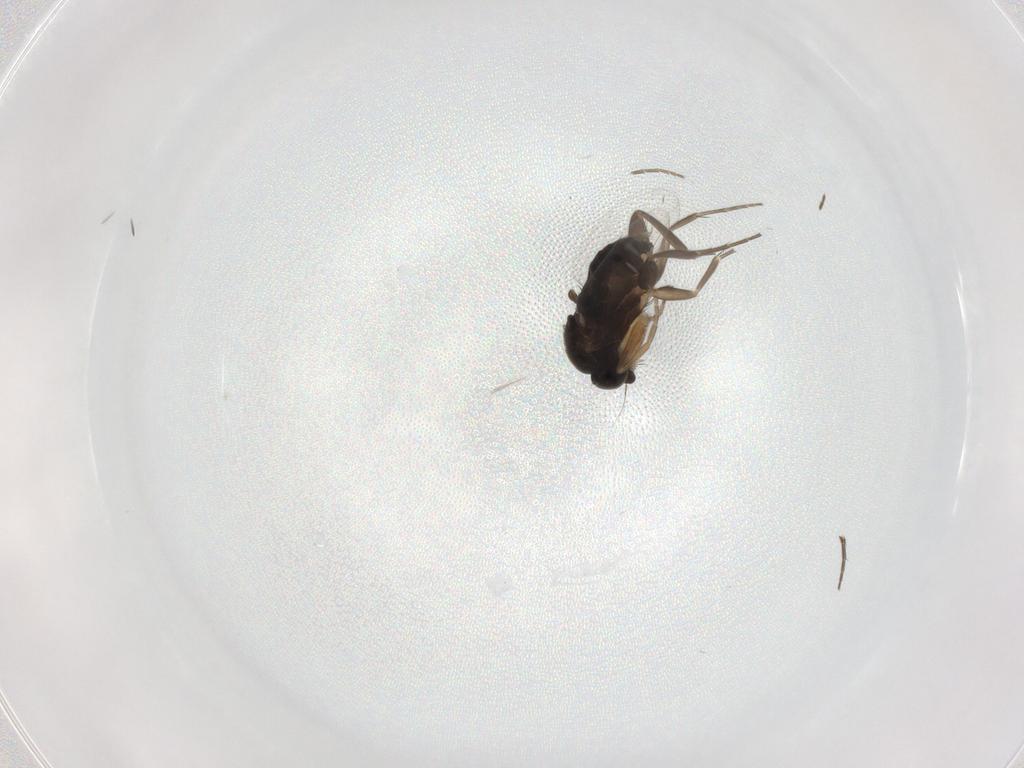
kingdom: Animalia
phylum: Arthropoda
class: Insecta
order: Diptera
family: Phoridae
